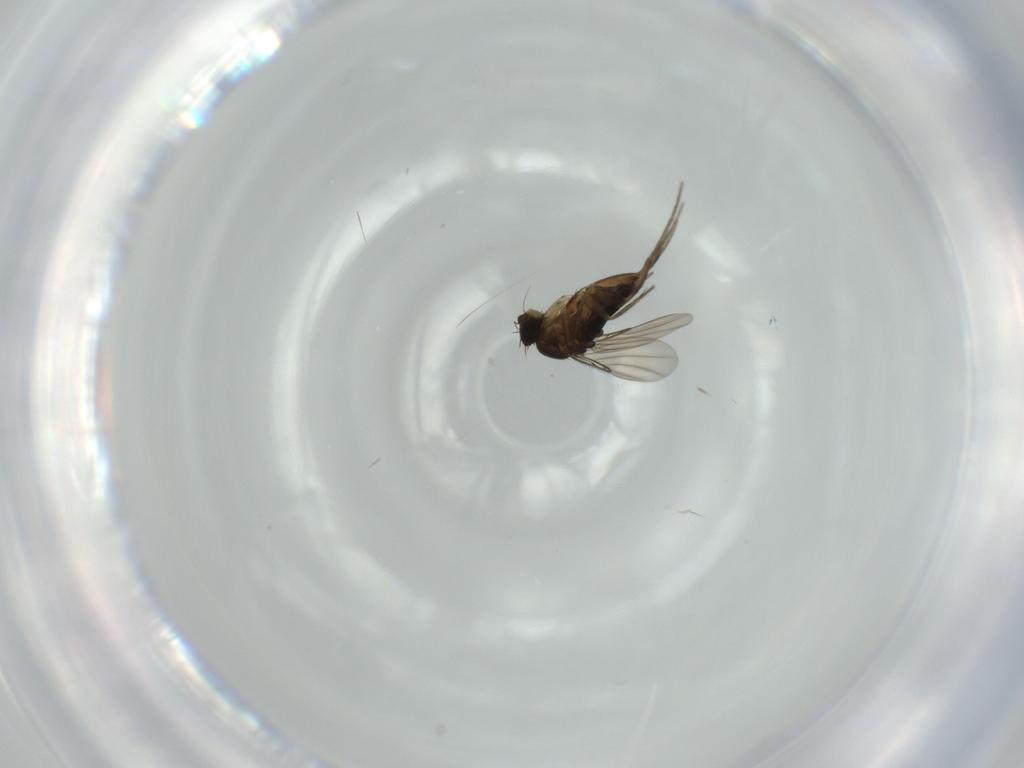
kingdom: Animalia
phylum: Arthropoda
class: Insecta
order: Diptera
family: Phoridae
